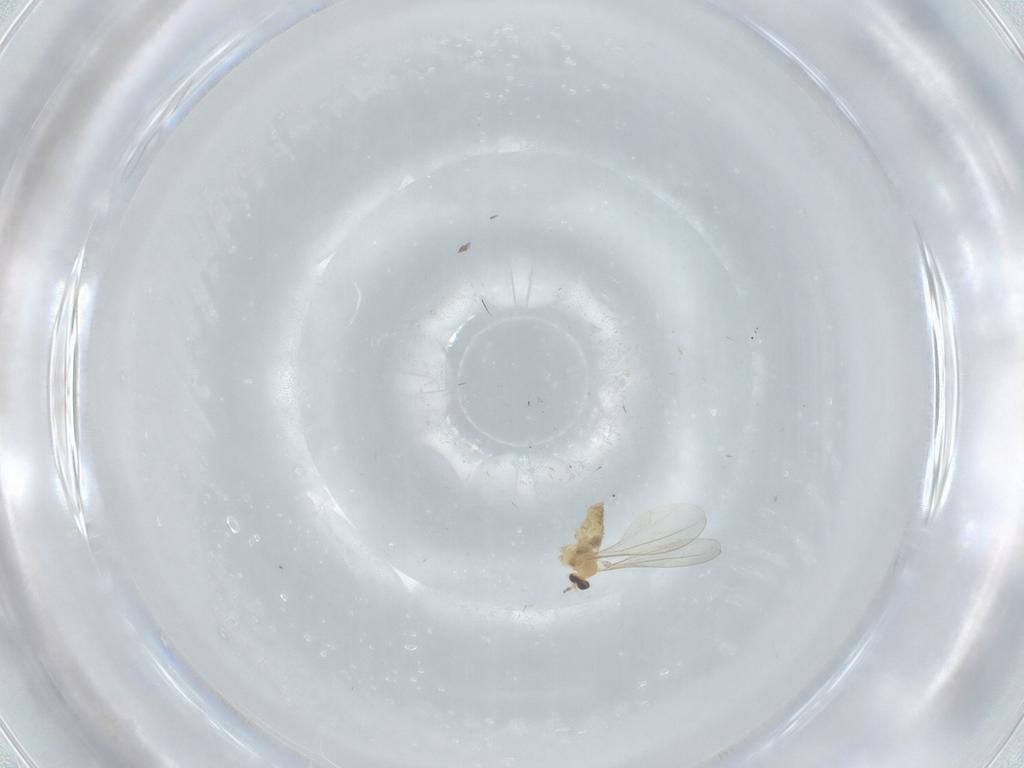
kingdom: Animalia
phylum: Arthropoda
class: Insecta
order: Diptera
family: Cecidomyiidae
